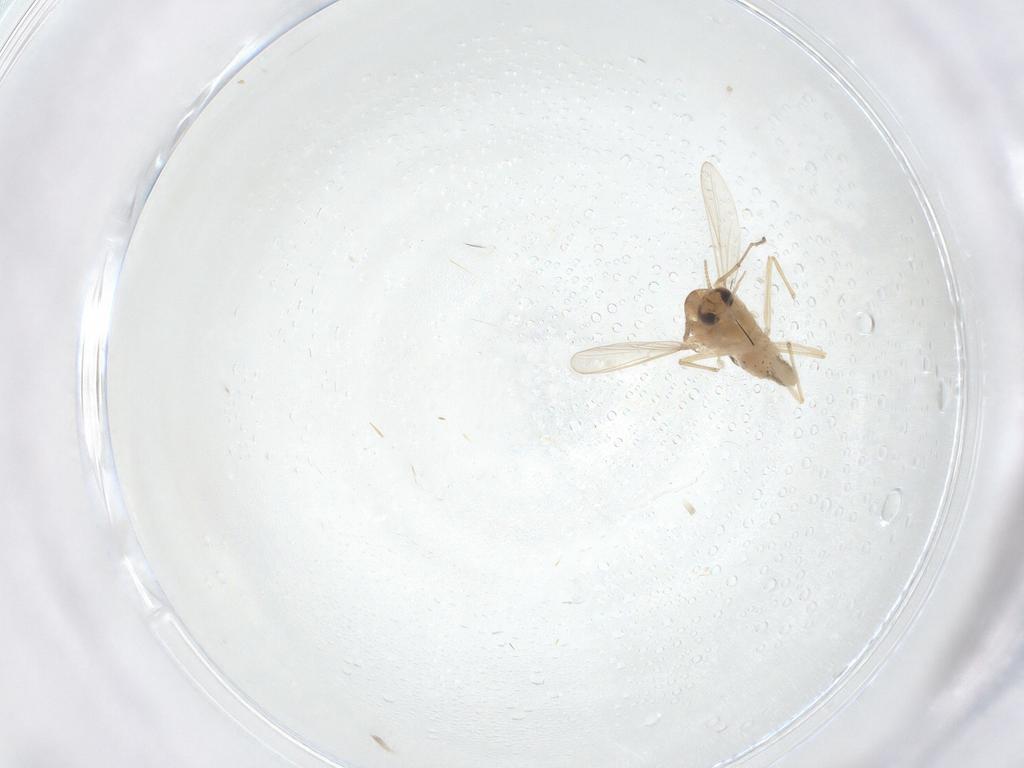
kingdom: Animalia
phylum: Arthropoda
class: Insecta
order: Diptera
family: Chironomidae
